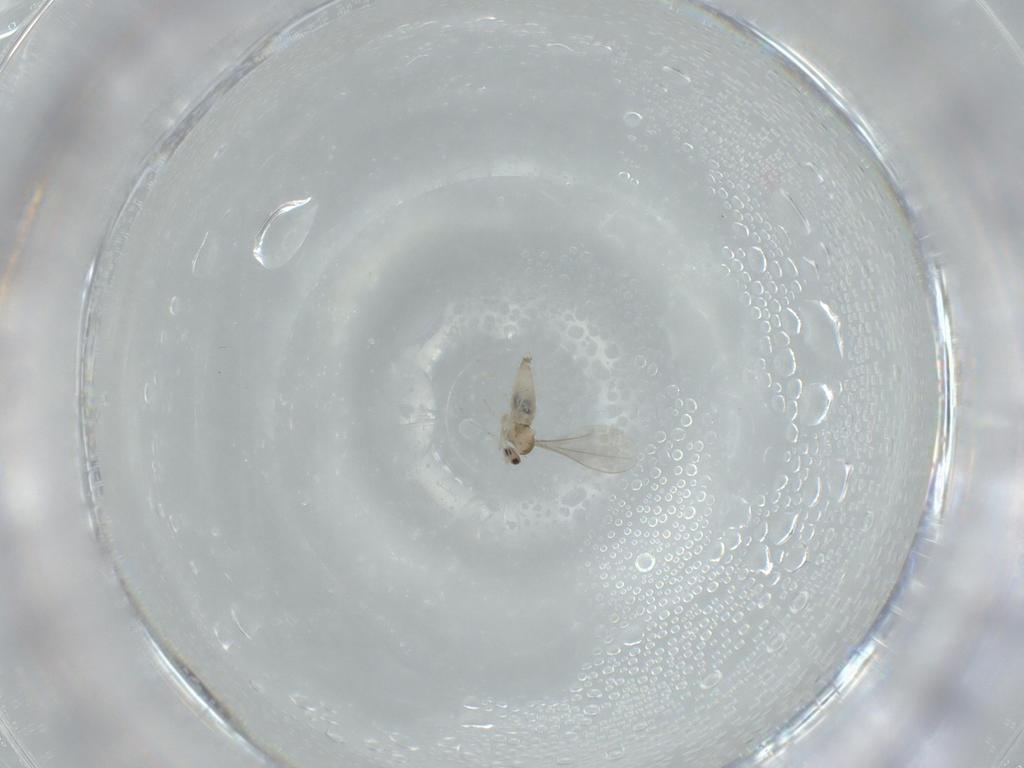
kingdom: Animalia
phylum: Arthropoda
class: Insecta
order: Diptera
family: Cecidomyiidae
